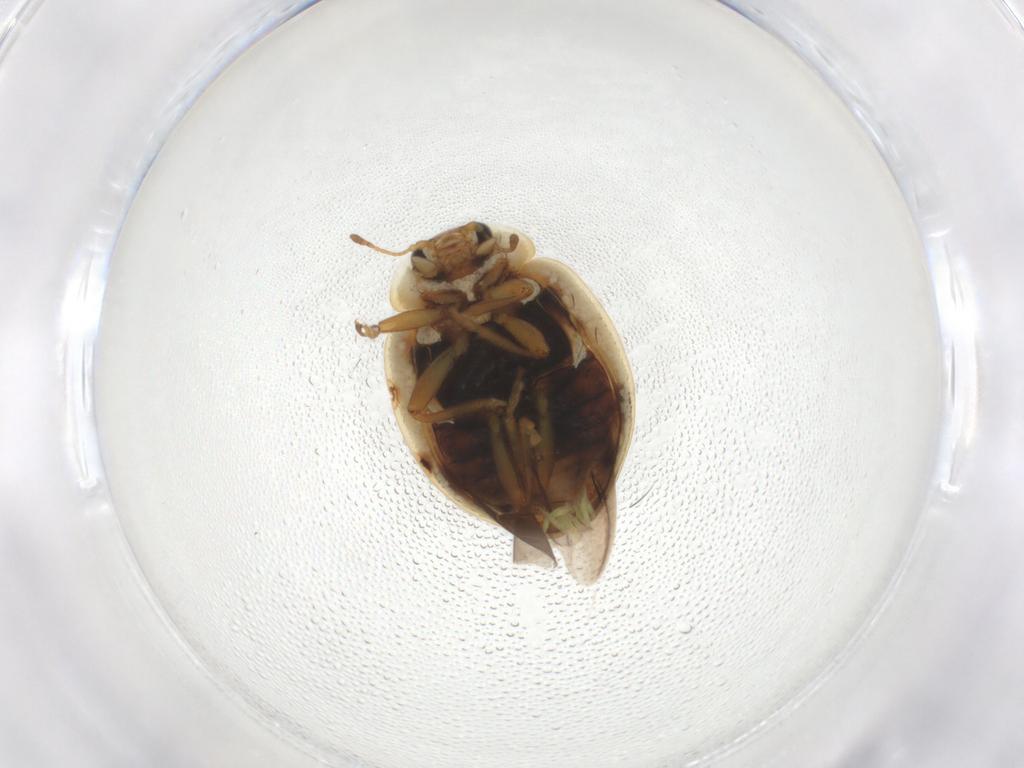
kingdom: Animalia
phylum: Arthropoda
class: Insecta
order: Coleoptera
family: Coccinellidae
